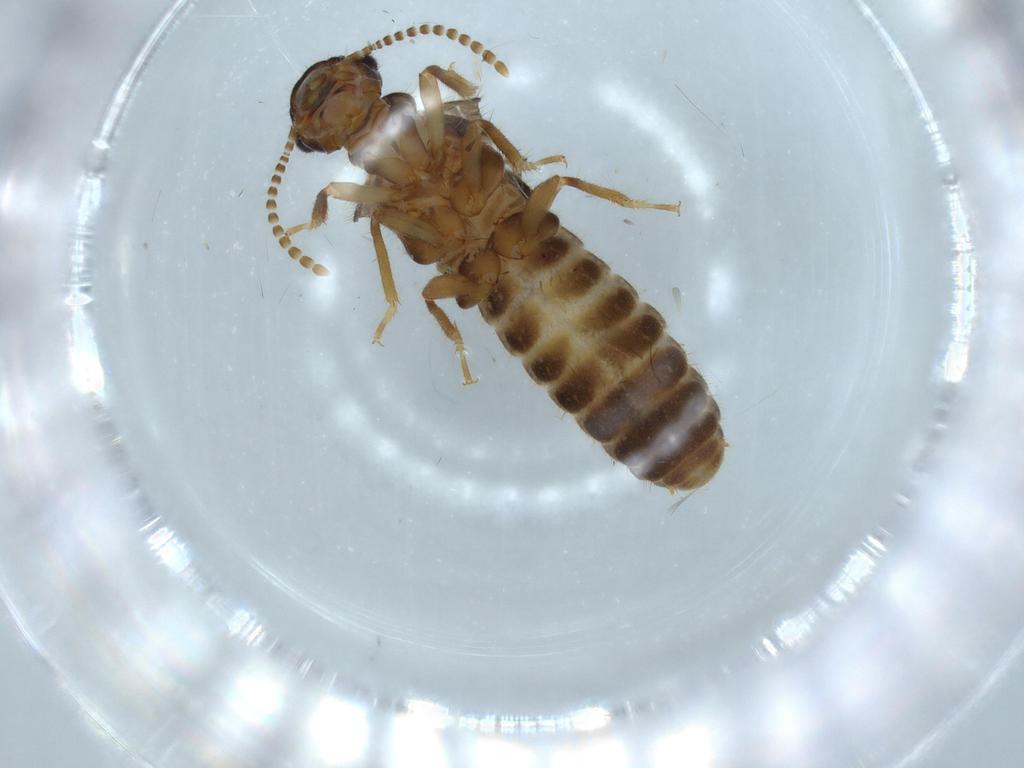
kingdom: Animalia
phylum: Arthropoda
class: Insecta
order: Blattodea
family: Termitidae
